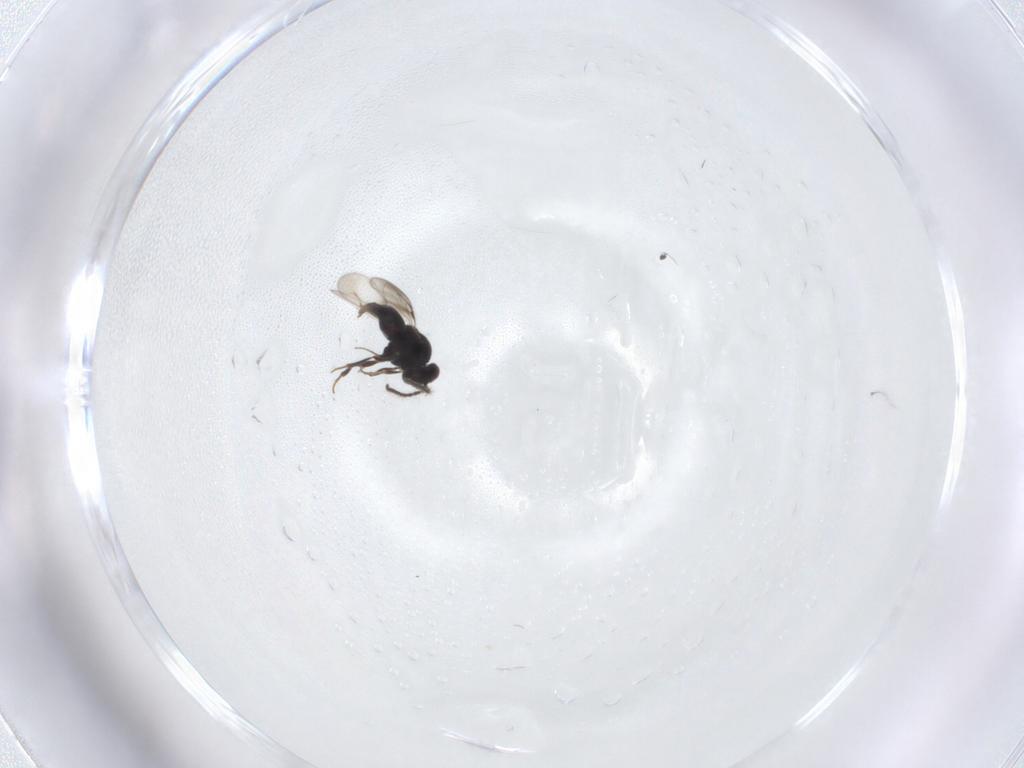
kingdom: Animalia
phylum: Arthropoda
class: Insecta
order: Hymenoptera
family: Ceraphronidae
